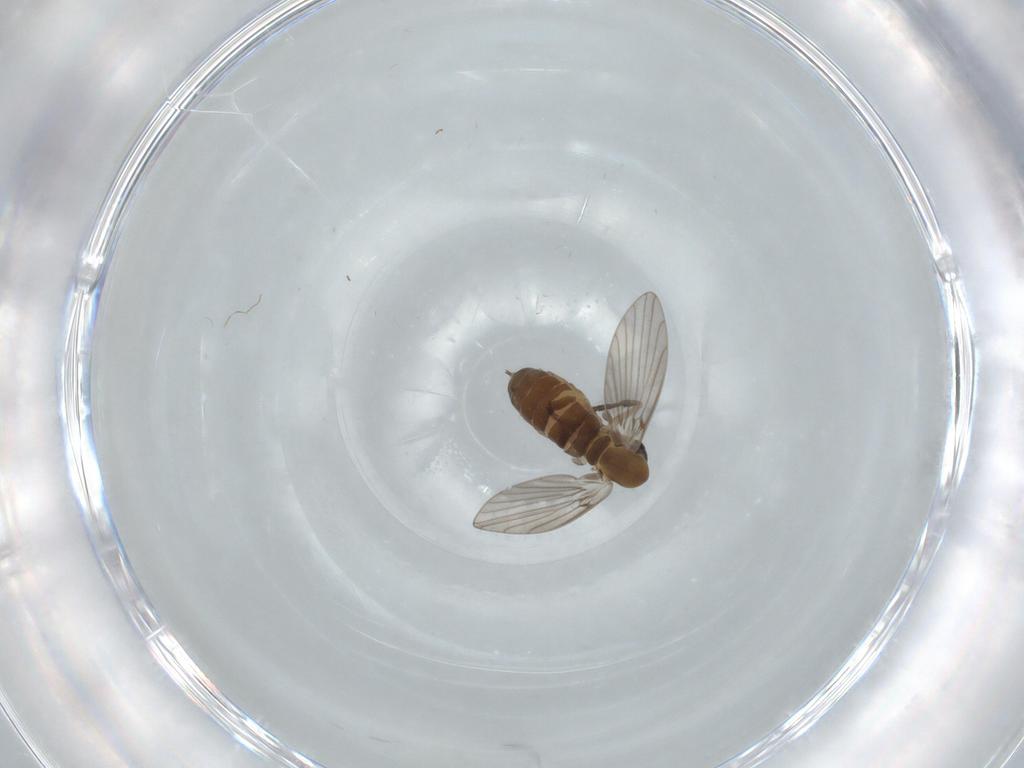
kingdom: Animalia
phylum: Arthropoda
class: Insecta
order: Diptera
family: Psychodidae
